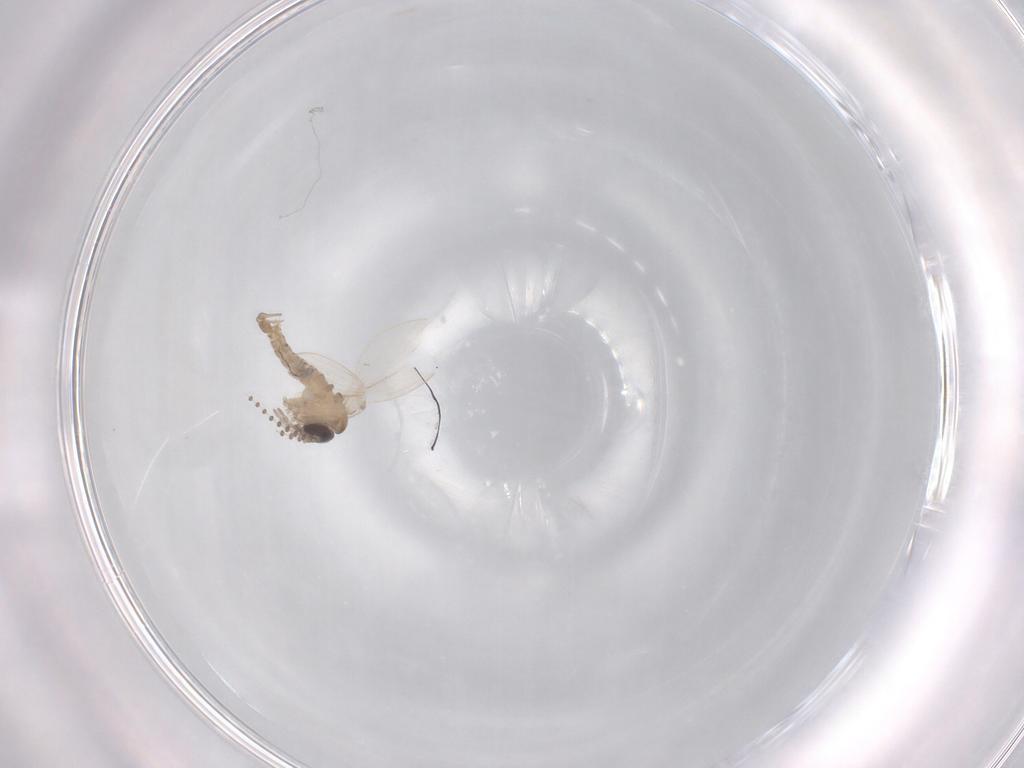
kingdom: Animalia
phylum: Arthropoda
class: Insecta
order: Diptera
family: Psychodidae
